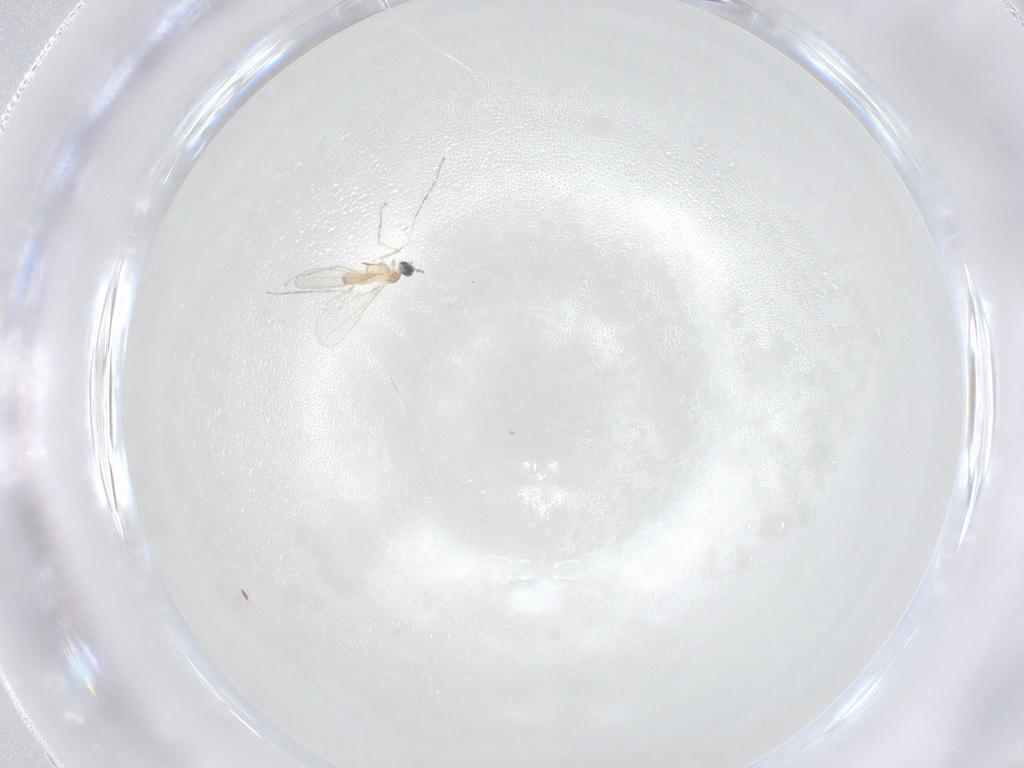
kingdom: Animalia
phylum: Arthropoda
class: Insecta
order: Diptera
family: Cecidomyiidae
